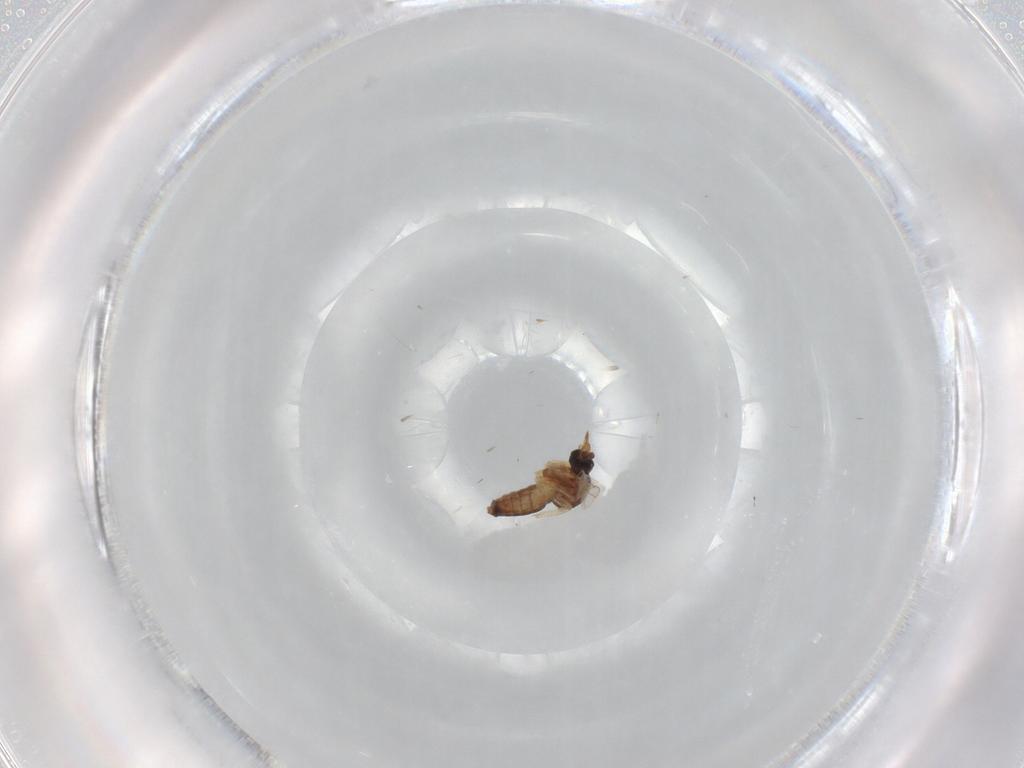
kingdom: Animalia
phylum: Arthropoda
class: Insecta
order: Diptera
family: Ceratopogonidae
